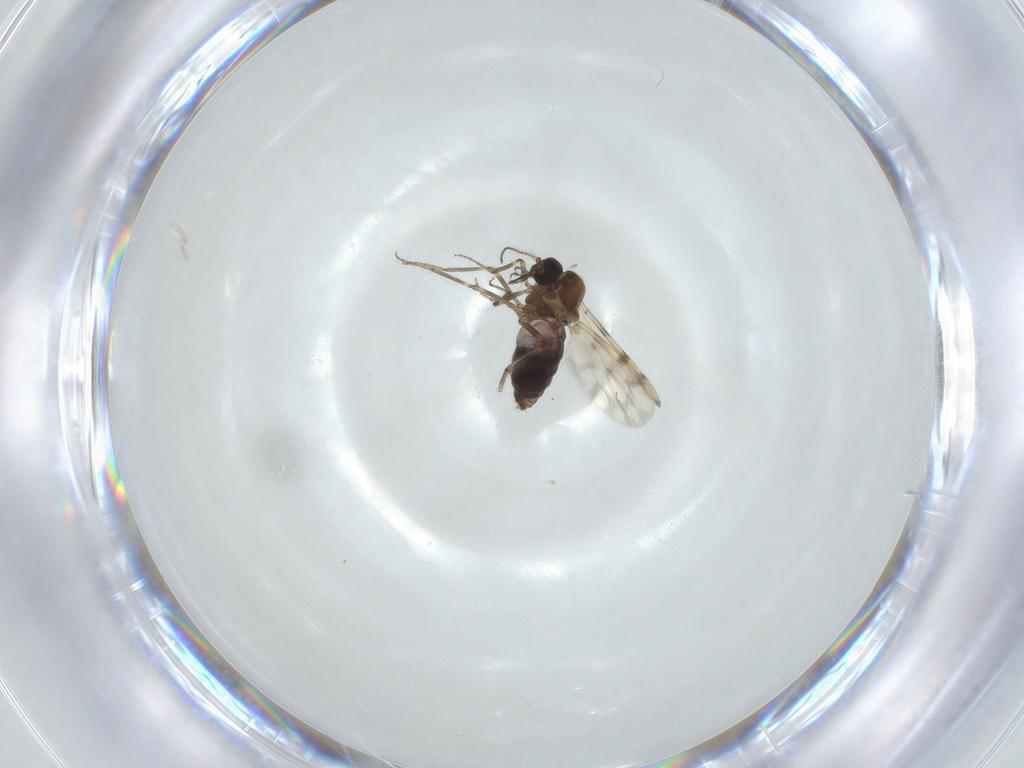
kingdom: Animalia
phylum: Arthropoda
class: Insecta
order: Diptera
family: Ceratopogonidae
